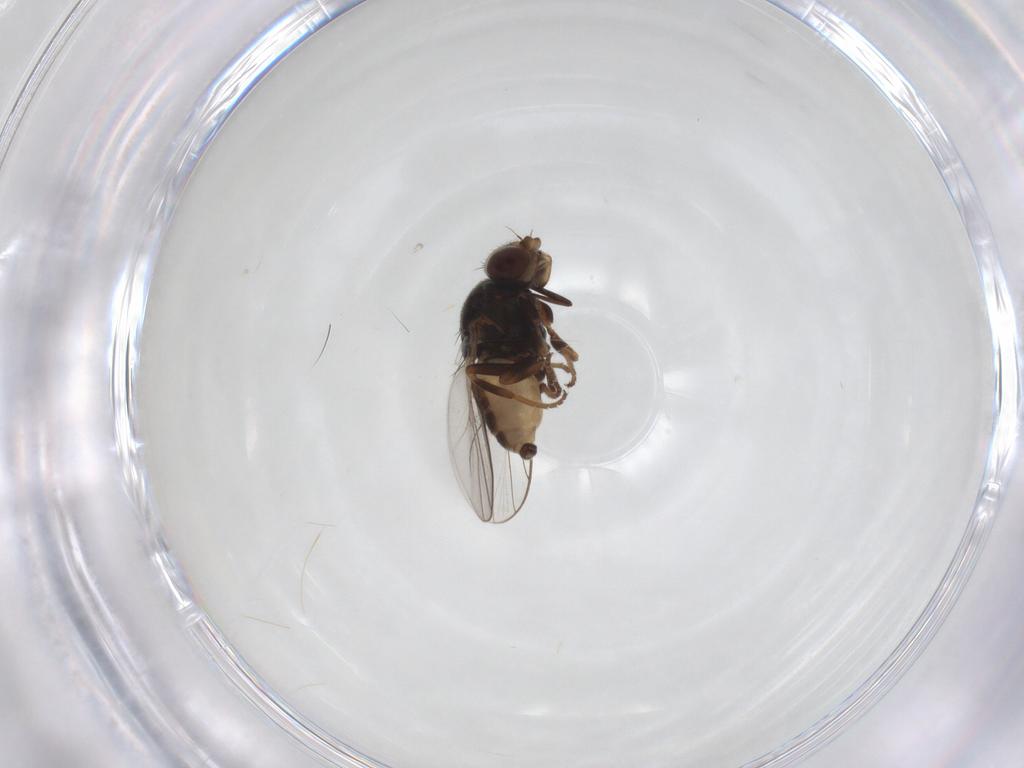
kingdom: Animalia
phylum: Arthropoda
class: Insecta
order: Diptera
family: Chloropidae
